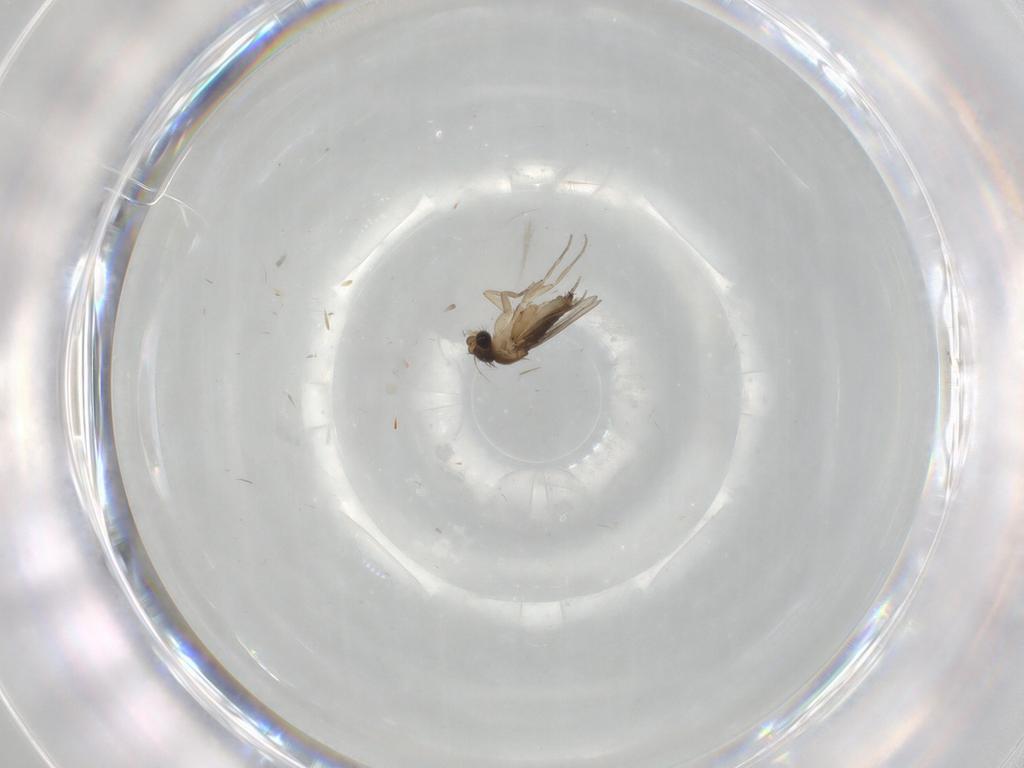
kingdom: Animalia
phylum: Arthropoda
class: Insecta
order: Diptera
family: Phoridae
